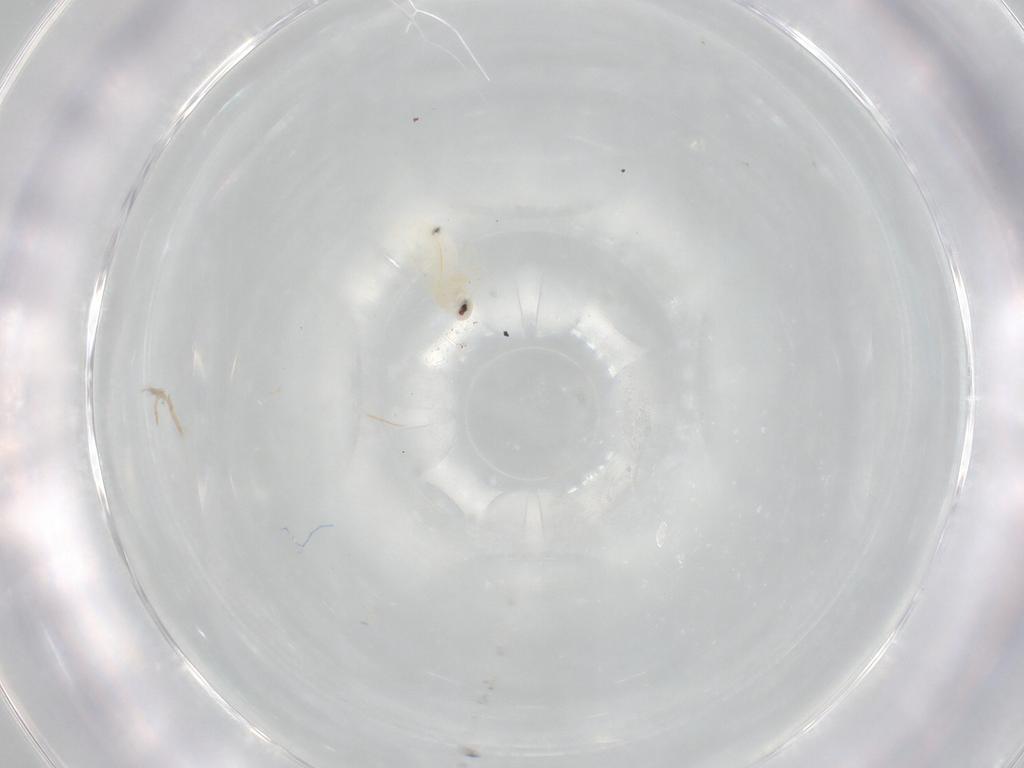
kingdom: Animalia
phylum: Arthropoda
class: Insecta
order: Hemiptera
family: Aleyrodidae
